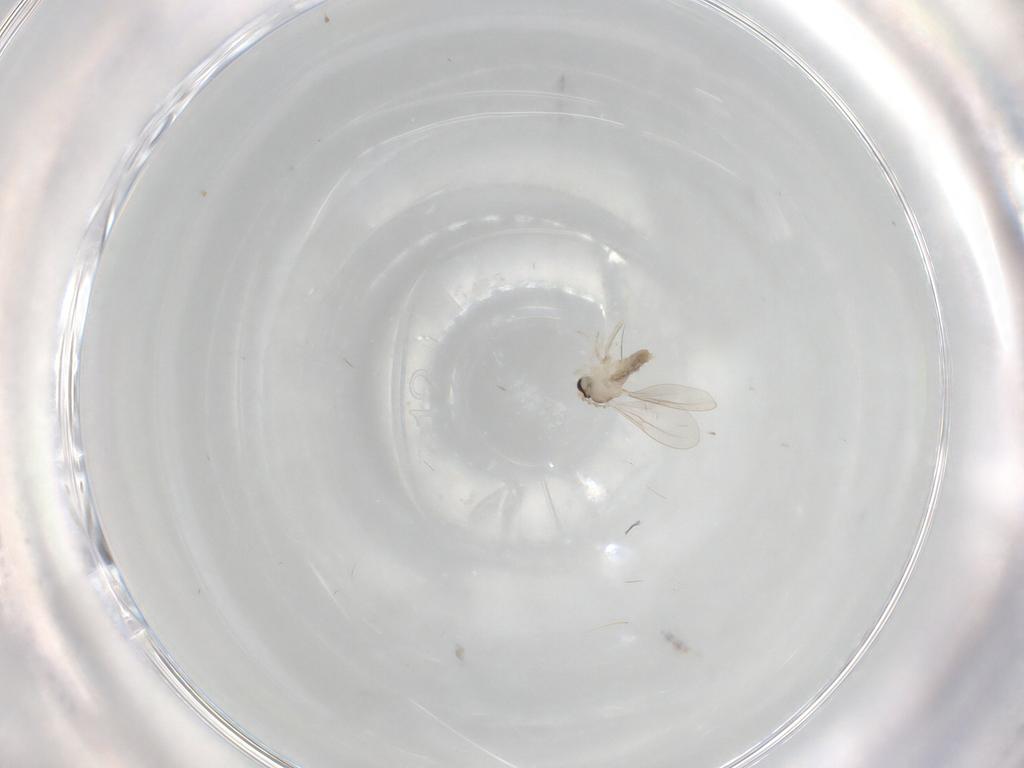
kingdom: Animalia
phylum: Arthropoda
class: Insecta
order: Diptera
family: Cecidomyiidae
